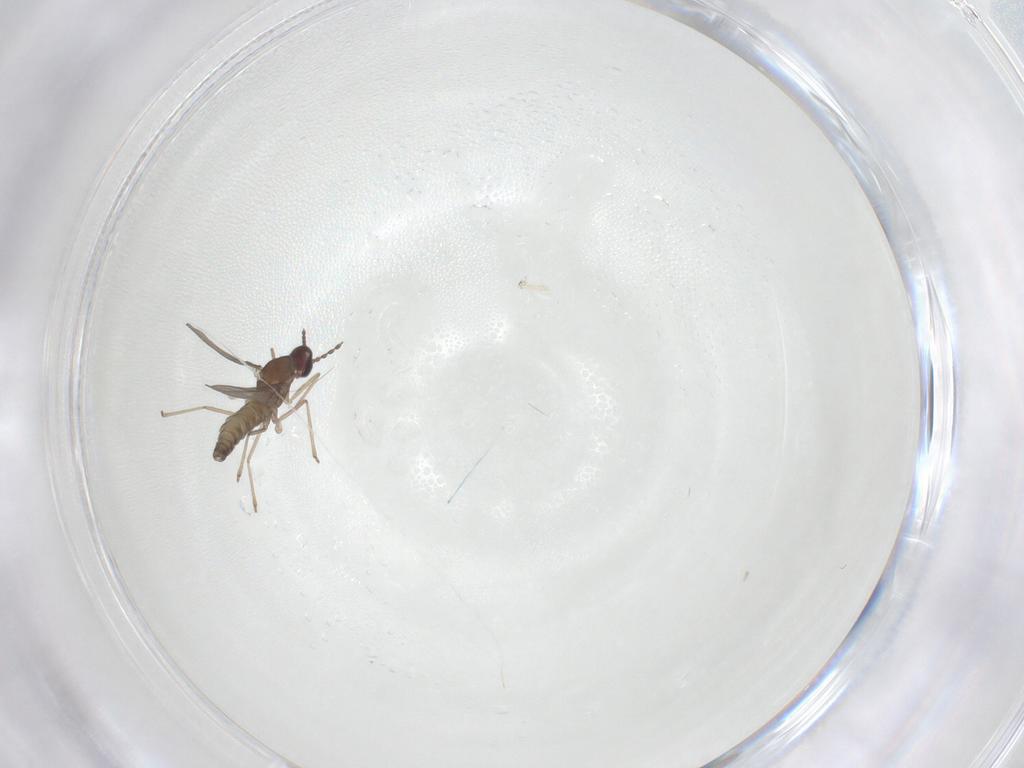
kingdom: Animalia
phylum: Arthropoda
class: Insecta
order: Diptera
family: Cecidomyiidae
